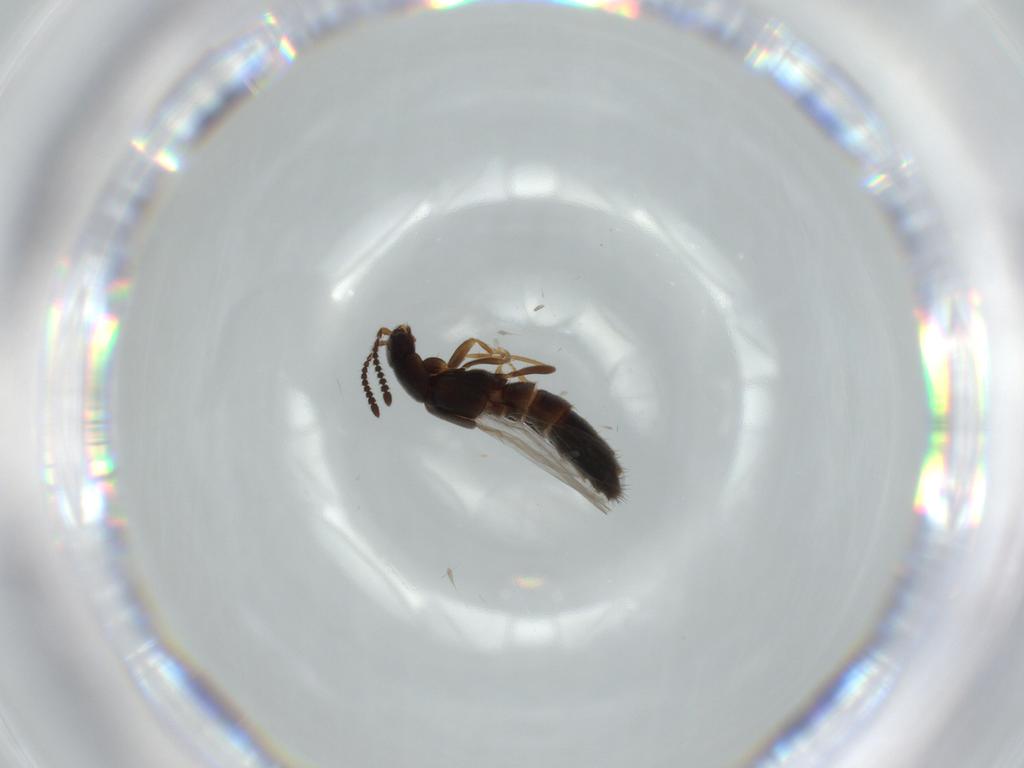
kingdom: Animalia
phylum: Arthropoda
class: Insecta
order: Coleoptera
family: Staphylinidae
